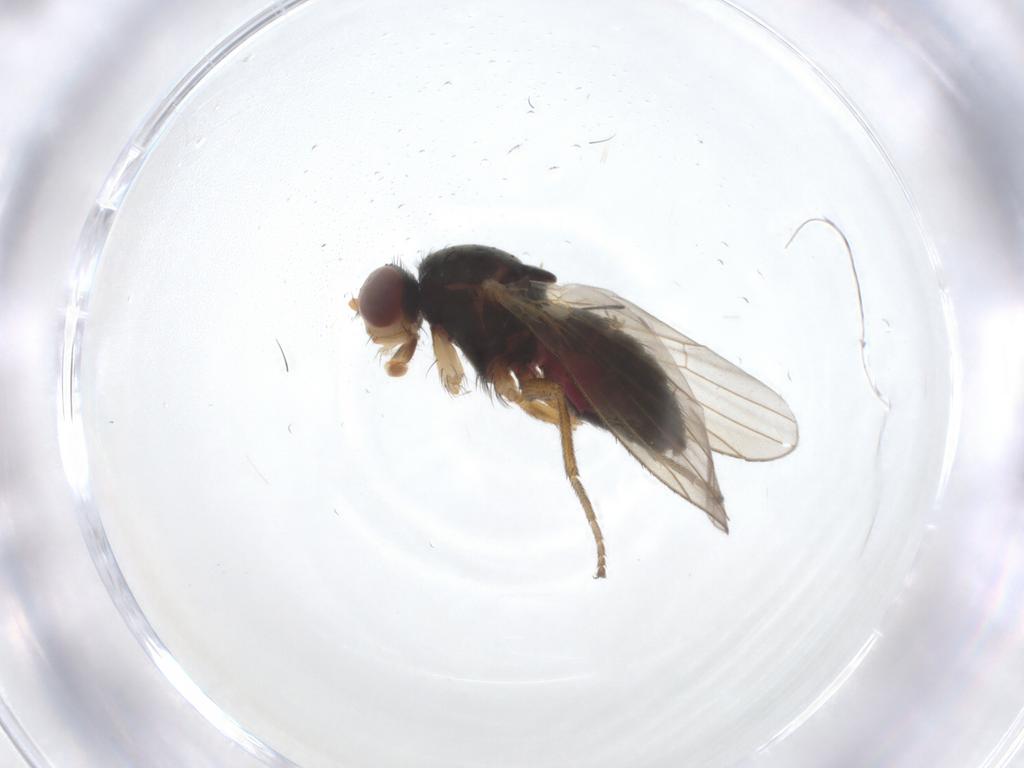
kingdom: Animalia
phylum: Arthropoda
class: Insecta
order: Diptera
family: Heleomyzidae
